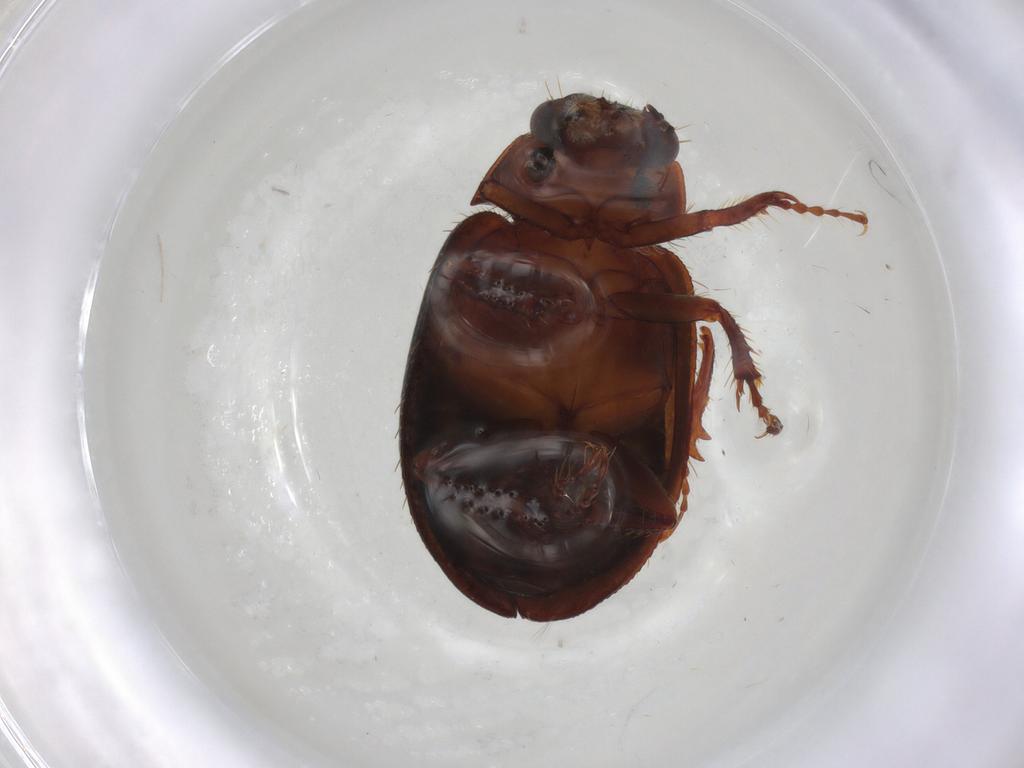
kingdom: Animalia
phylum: Arthropoda
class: Insecta
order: Coleoptera
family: Hybosoridae
